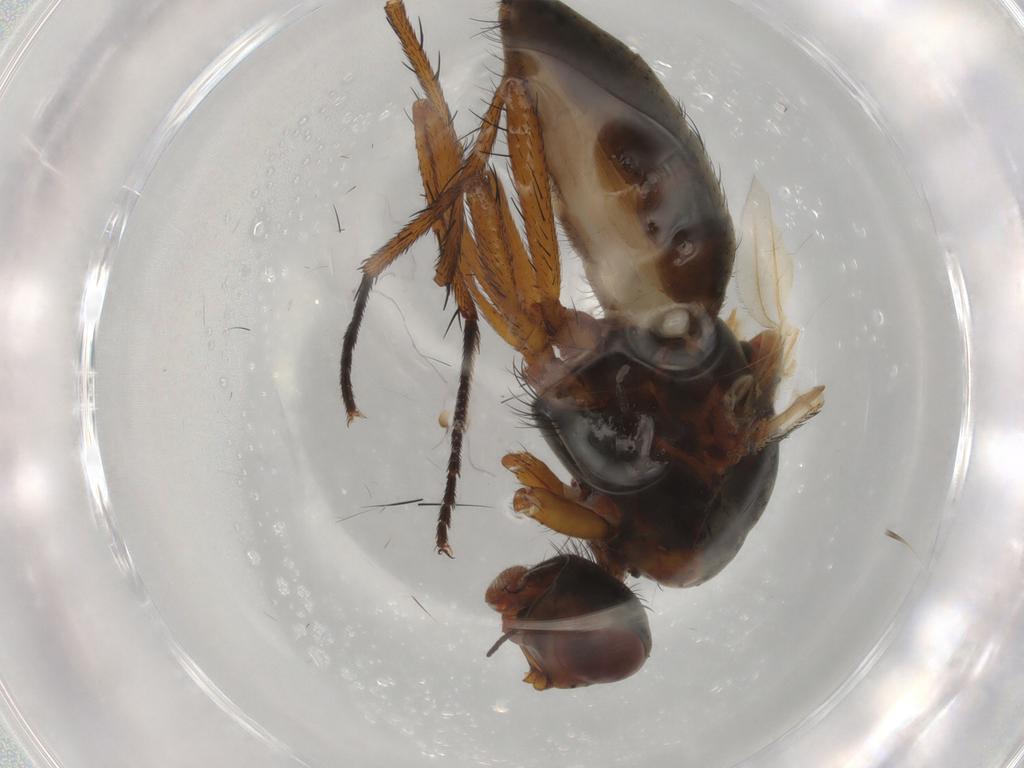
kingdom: Animalia
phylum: Arthropoda
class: Insecta
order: Diptera
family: Anthomyiidae
